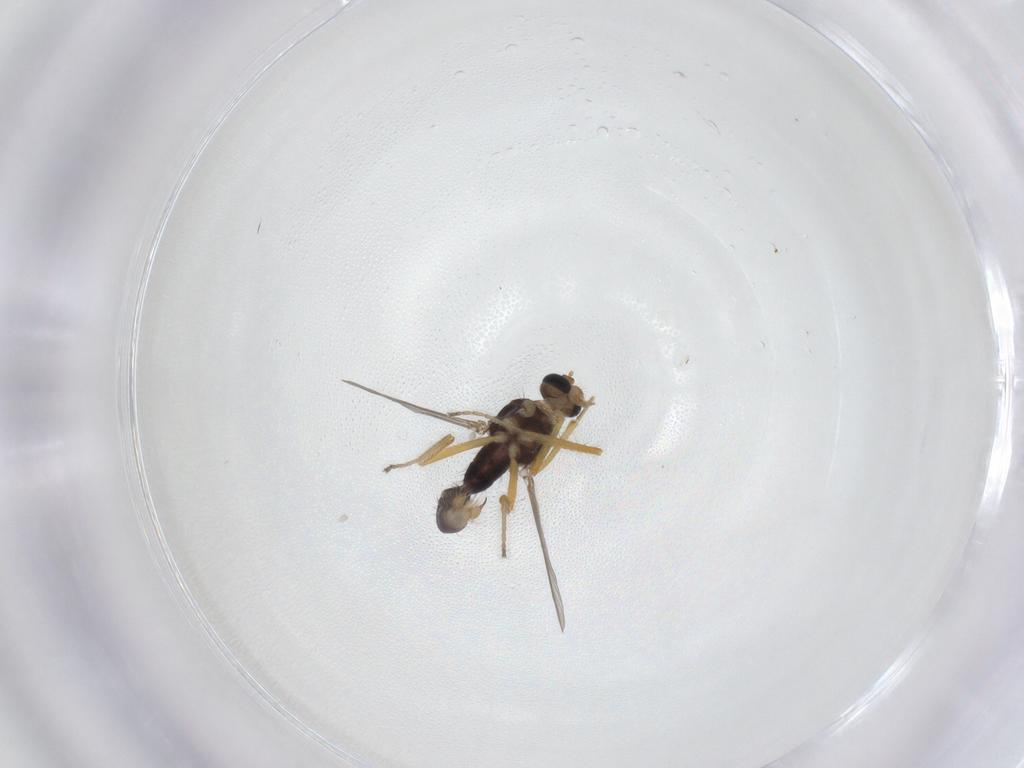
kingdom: Animalia
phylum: Arthropoda
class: Insecta
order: Diptera
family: Ceratopogonidae
